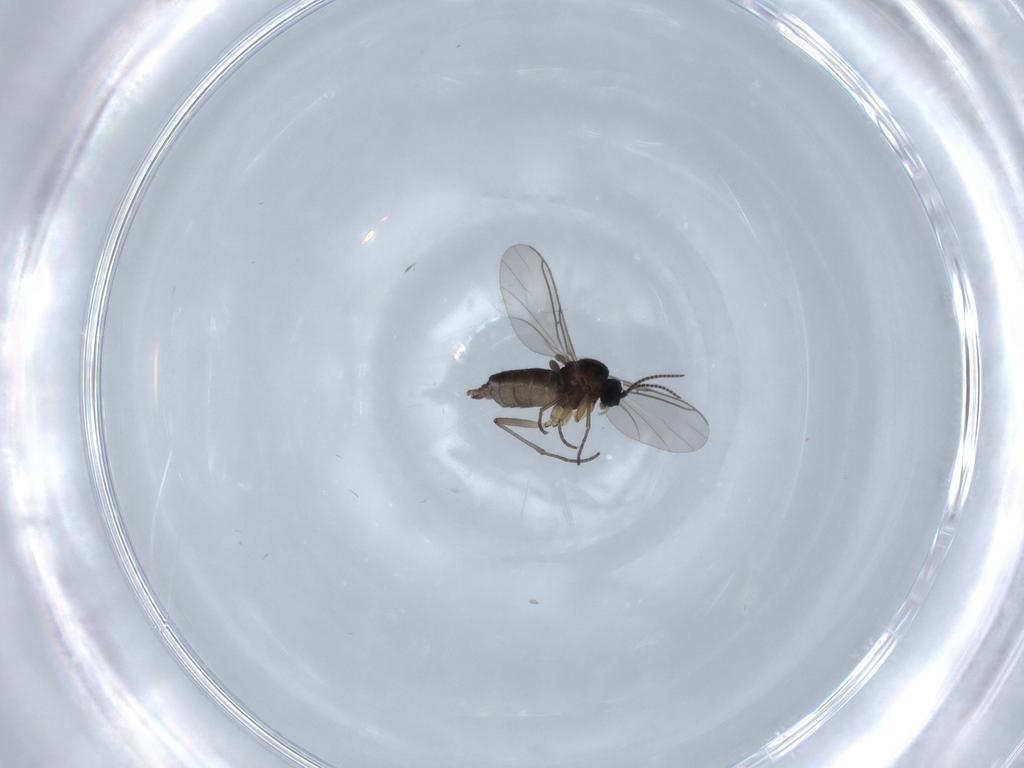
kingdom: Animalia
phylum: Arthropoda
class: Insecta
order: Diptera
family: Sciaridae
